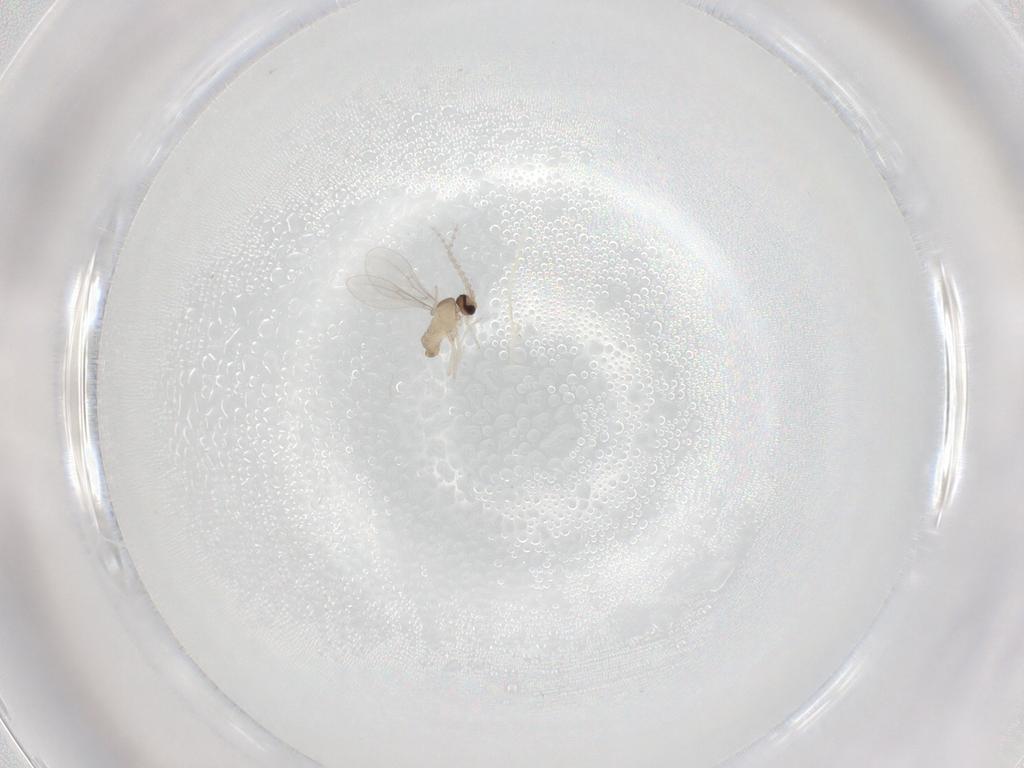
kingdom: Animalia
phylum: Arthropoda
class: Insecta
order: Diptera
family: Phoridae
